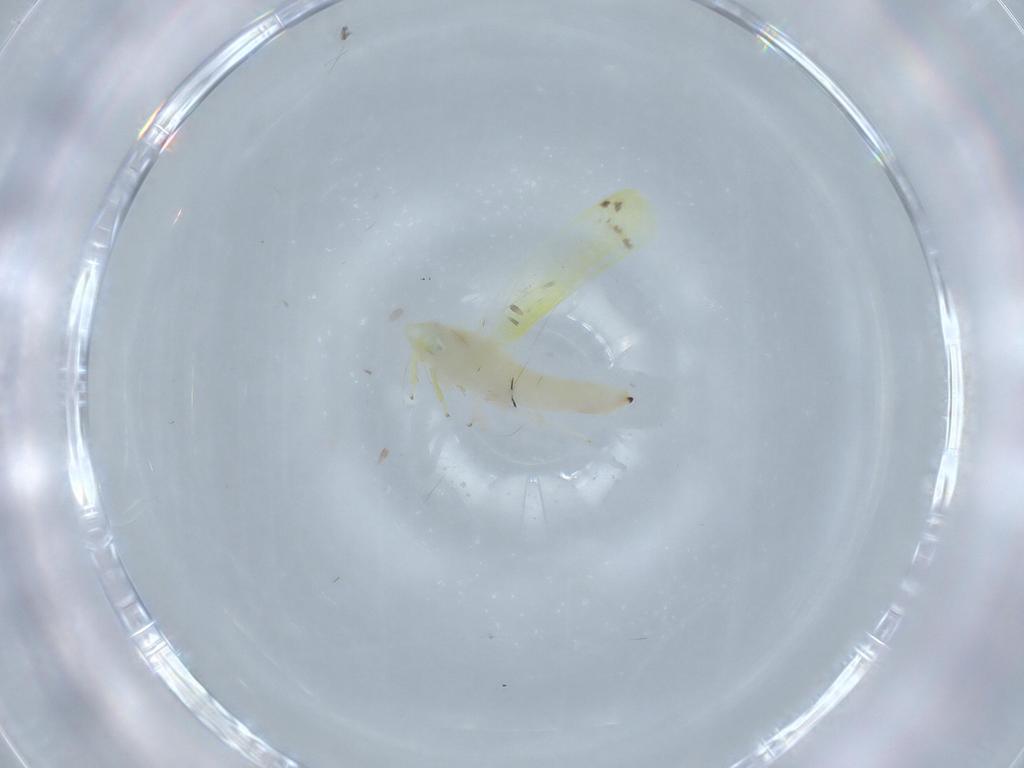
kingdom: Animalia
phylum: Arthropoda
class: Insecta
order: Hemiptera
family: Cicadellidae
